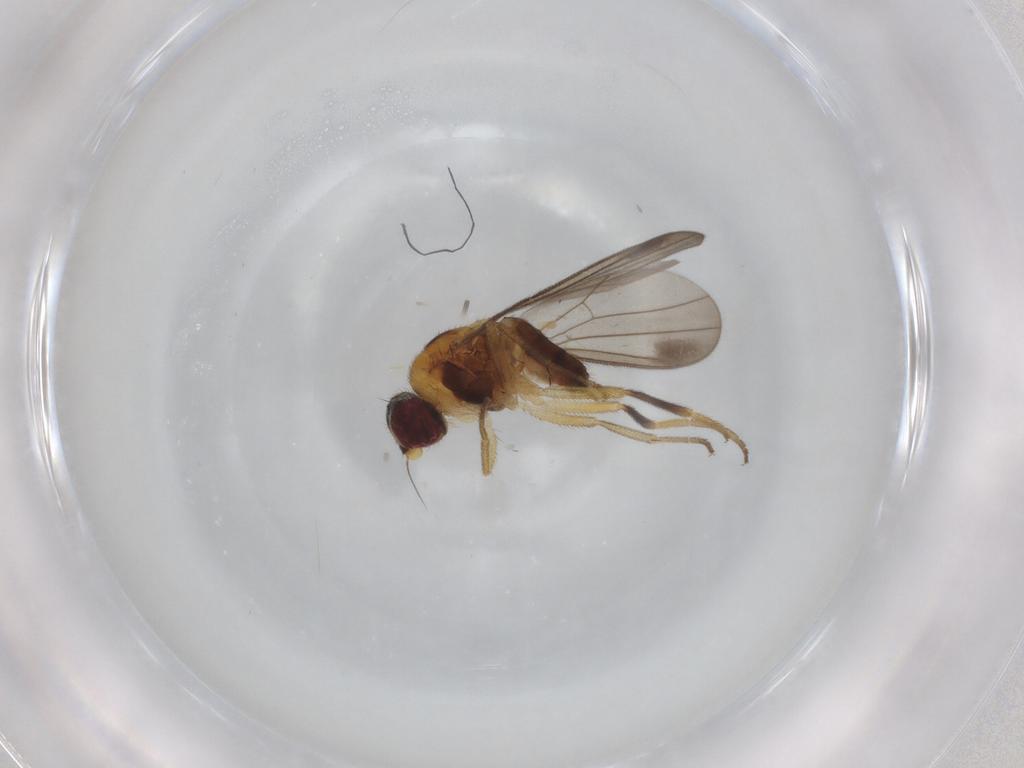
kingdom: Animalia
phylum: Arthropoda
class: Insecta
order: Diptera
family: Chloropidae
